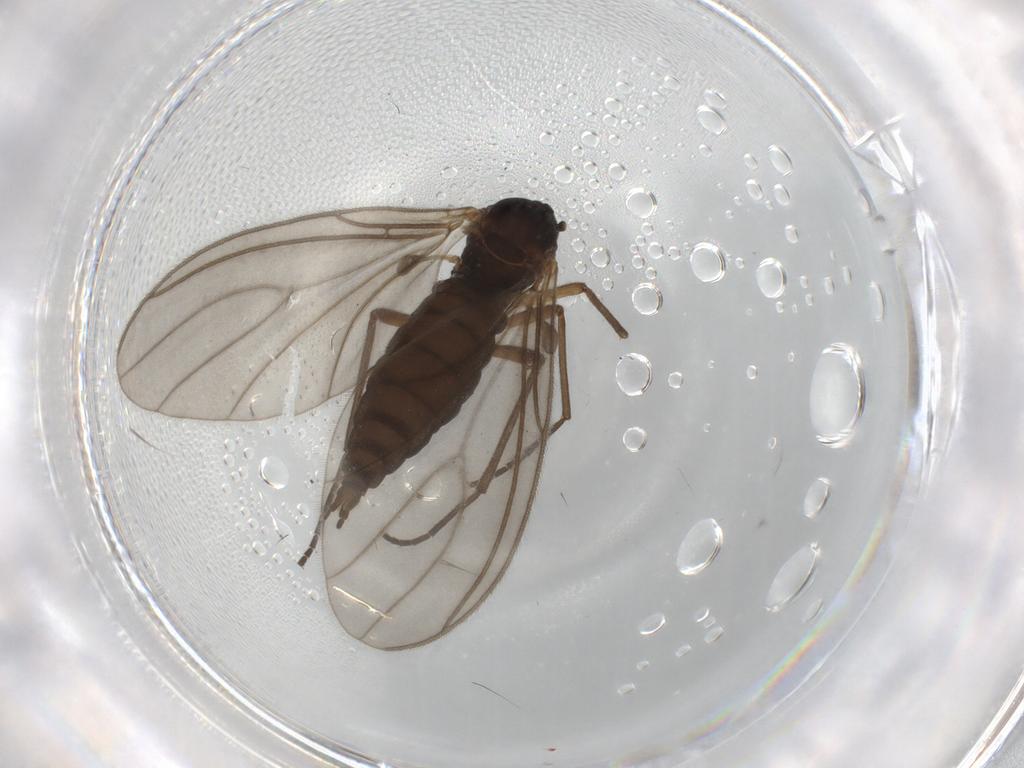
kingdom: Animalia
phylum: Arthropoda
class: Insecta
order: Diptera
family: Sciaridae
